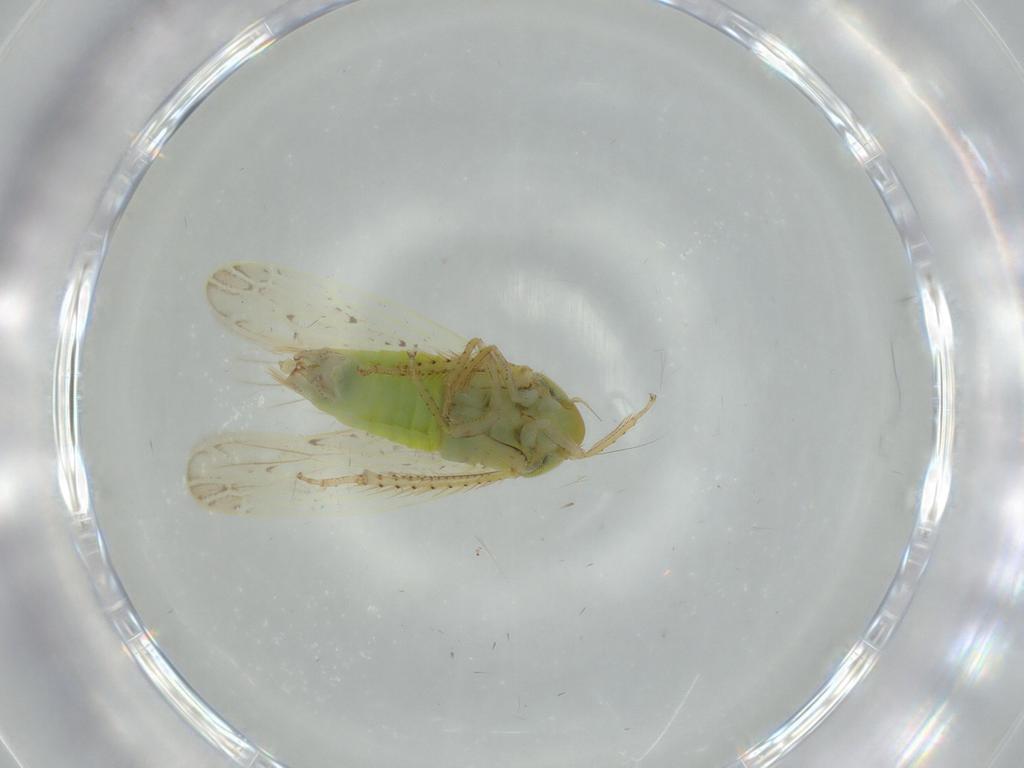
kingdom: Animalia
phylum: Arthropoda
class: Insecta
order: Hemiptera
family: Cicadellidae
